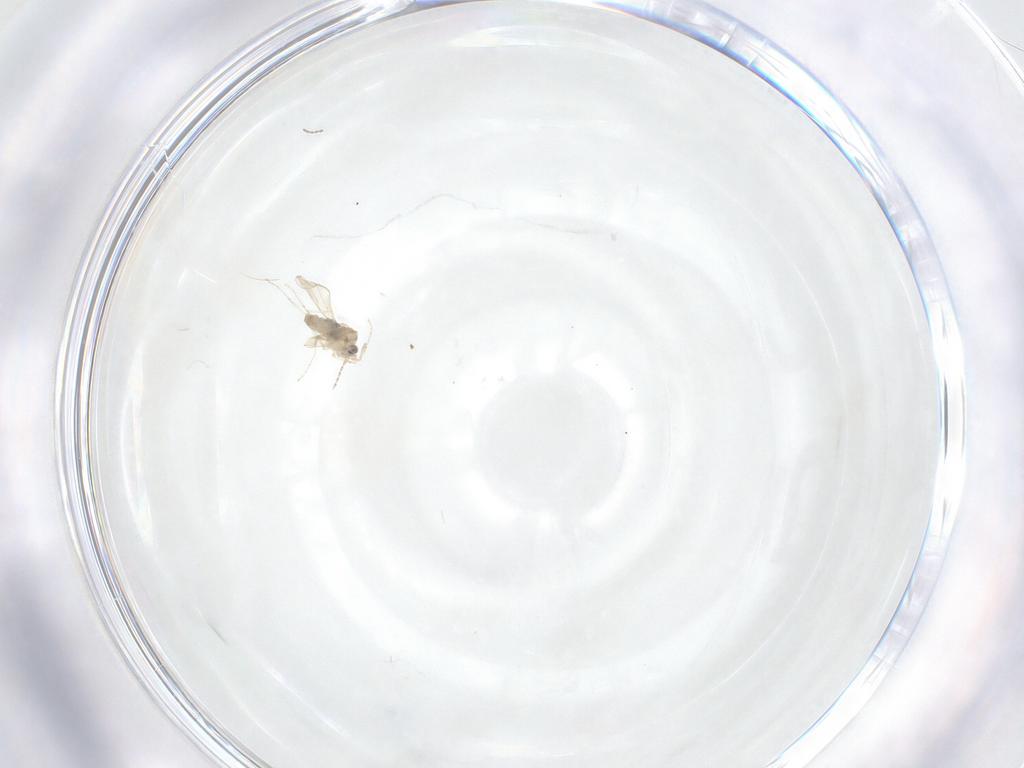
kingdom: Animalia
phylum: Arthropoda
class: Insecta
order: Diptera
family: Cecidomyiidae
